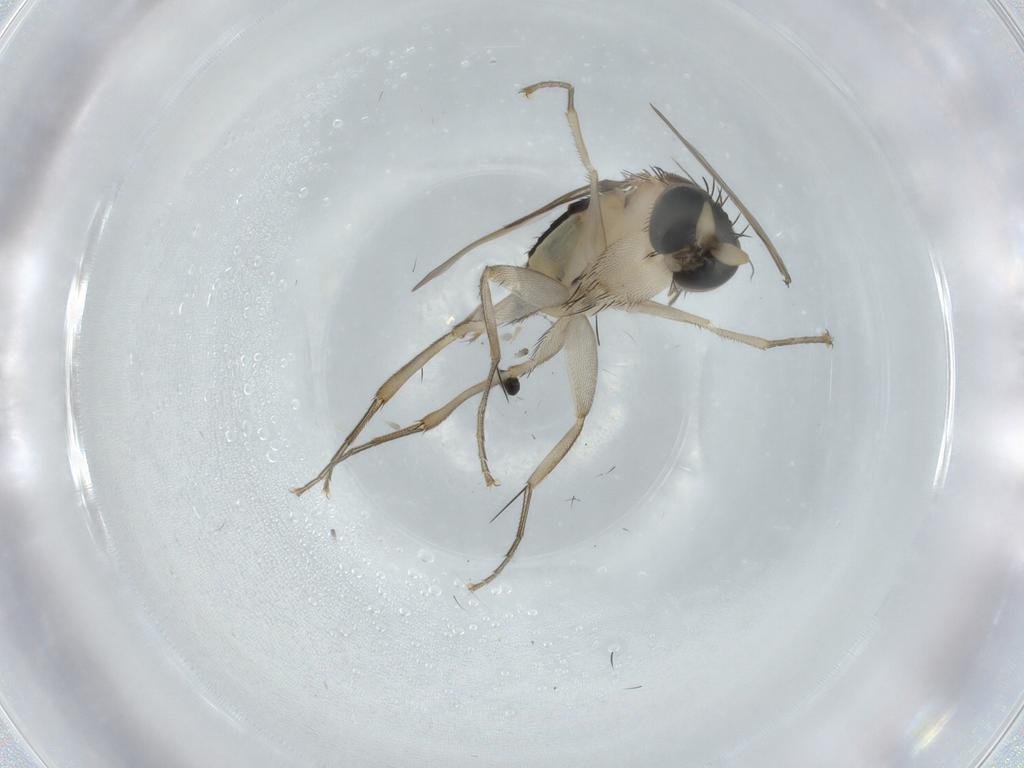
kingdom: Animalia
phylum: Arthropoda
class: Insecta
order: Diptera
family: Phoridae
